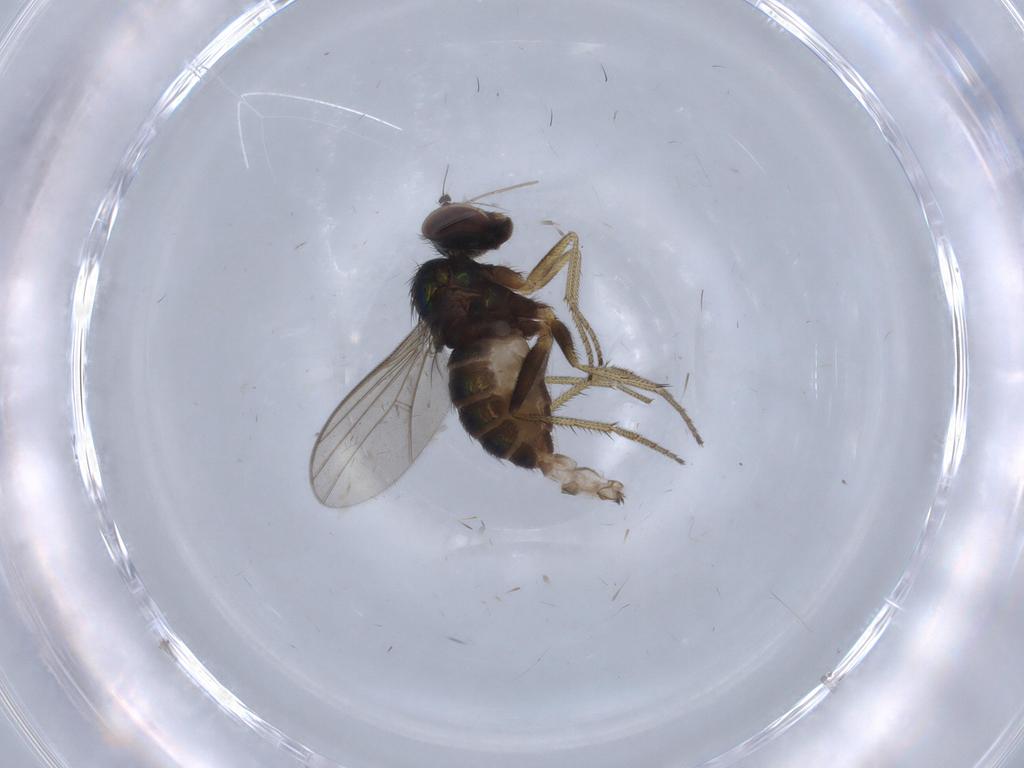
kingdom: Animalia
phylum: Arthropoda
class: Insecta
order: Diptera
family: Dolichopodidae
